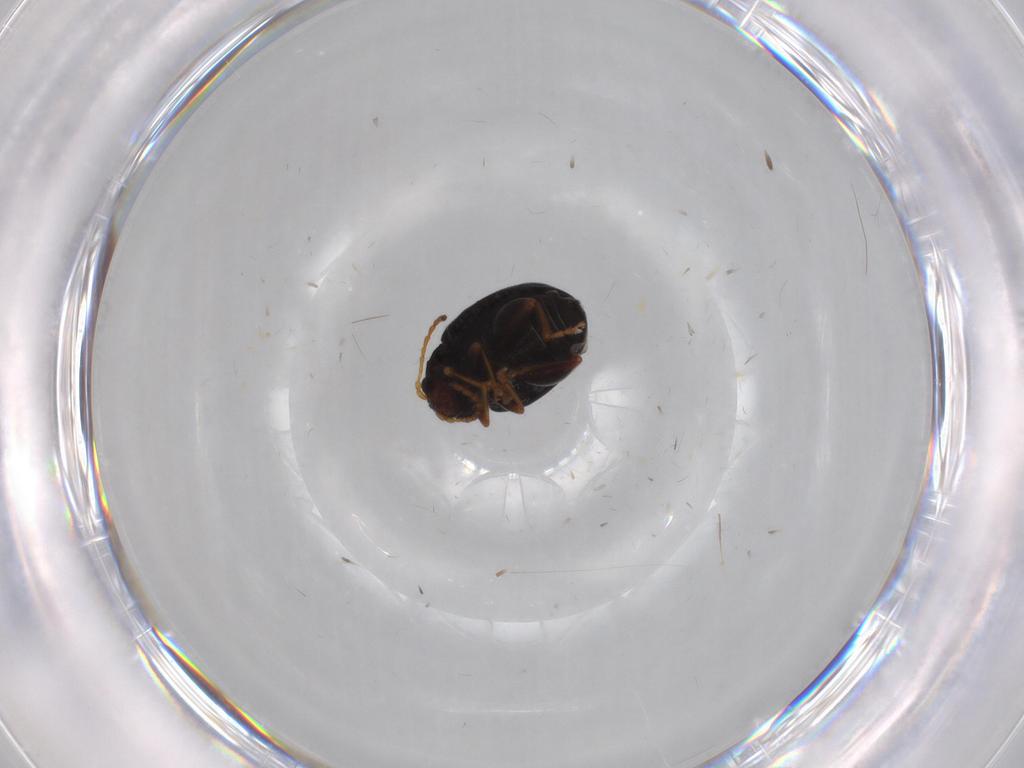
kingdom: Animalia
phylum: Arthropoda
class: Insecta
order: Coleoptera
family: Chrysomelidae
